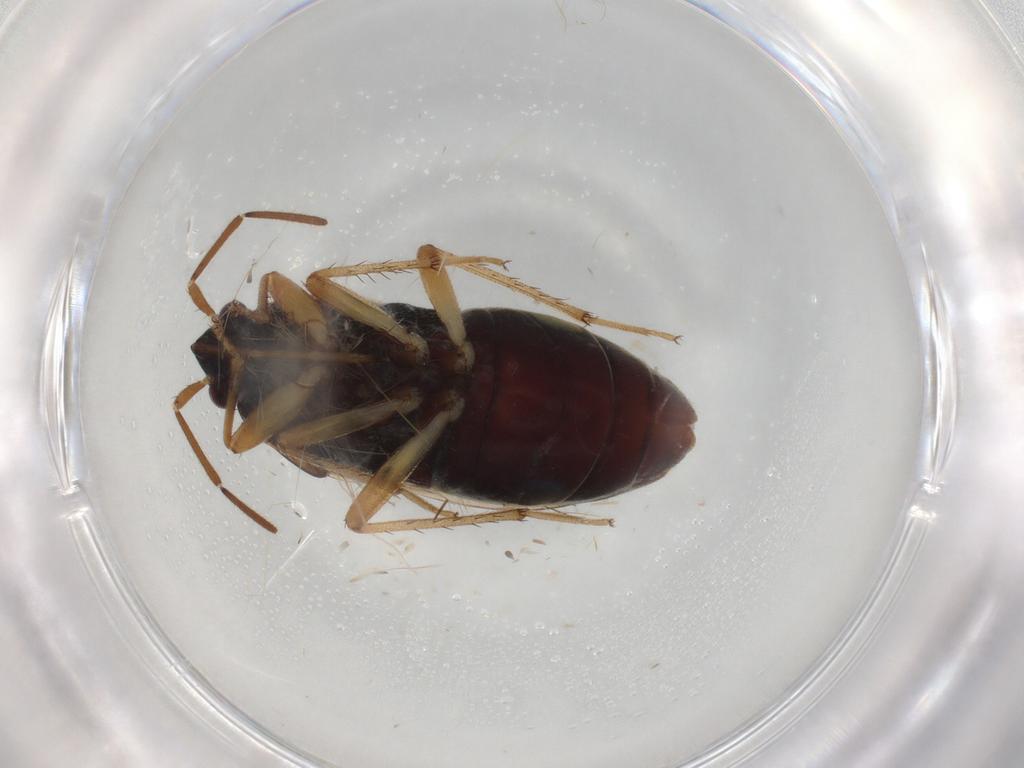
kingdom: Animalia
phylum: Arthropoda
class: Insecta
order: Hemiptera
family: Rhyparochromidae
